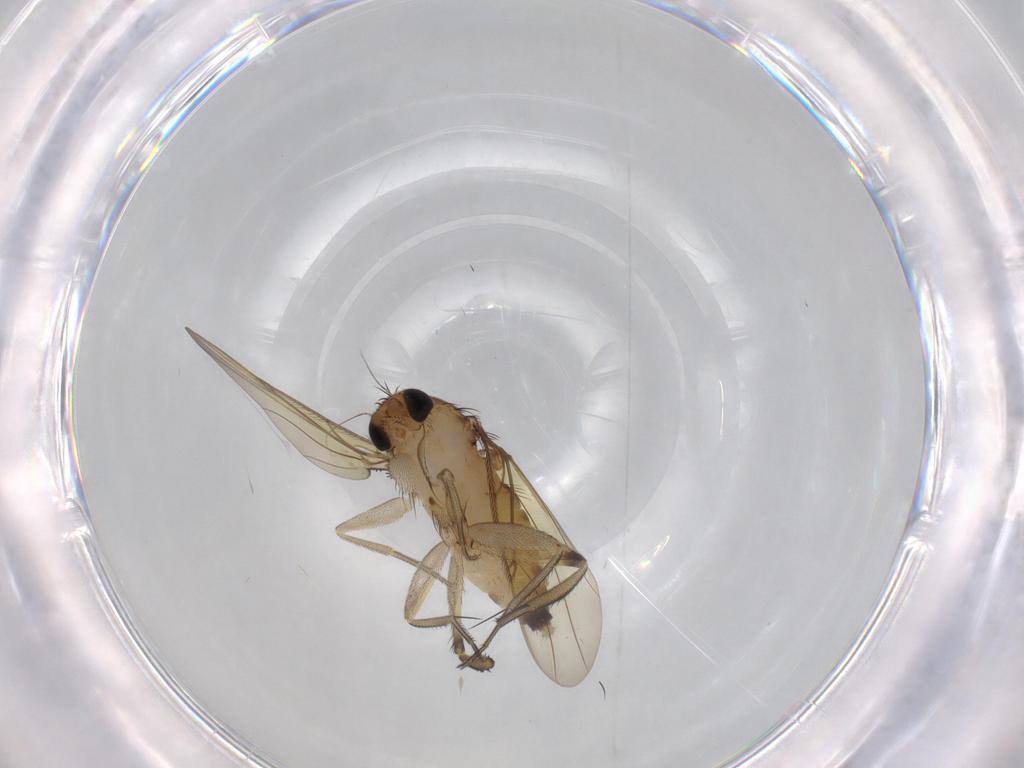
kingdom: Animalia
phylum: Arthropoda
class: Insecta
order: Diptera
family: Phoridae
